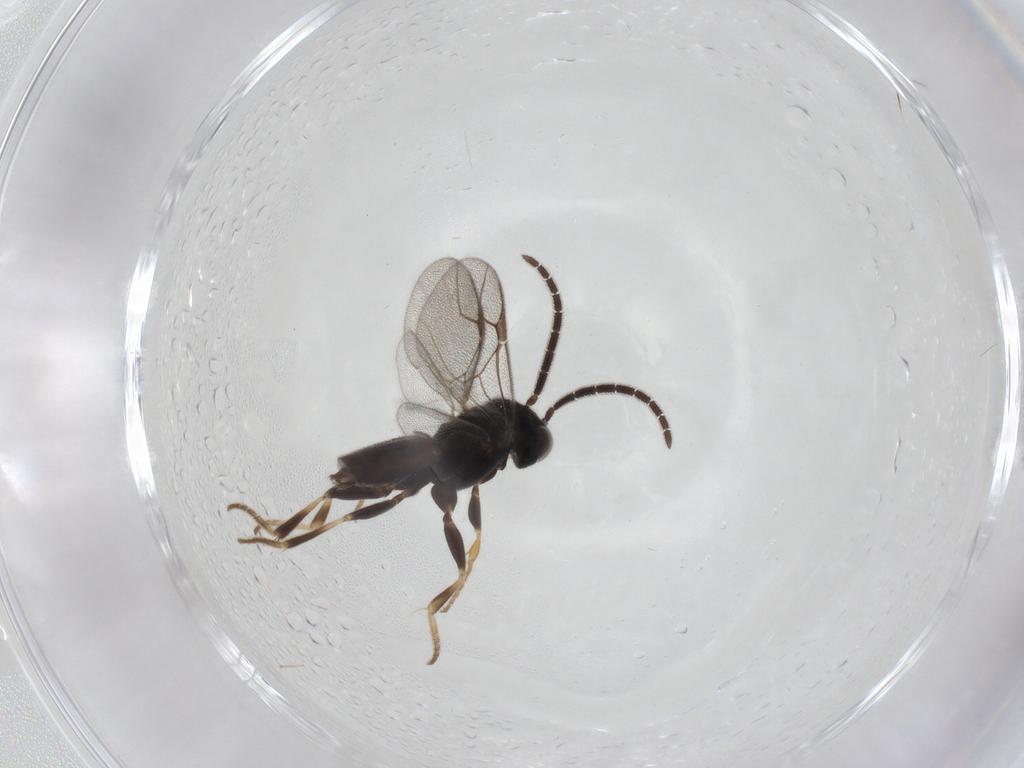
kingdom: Animalia
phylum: Arthropoda
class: Insecta
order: Hymenoptera
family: Dryinidae
